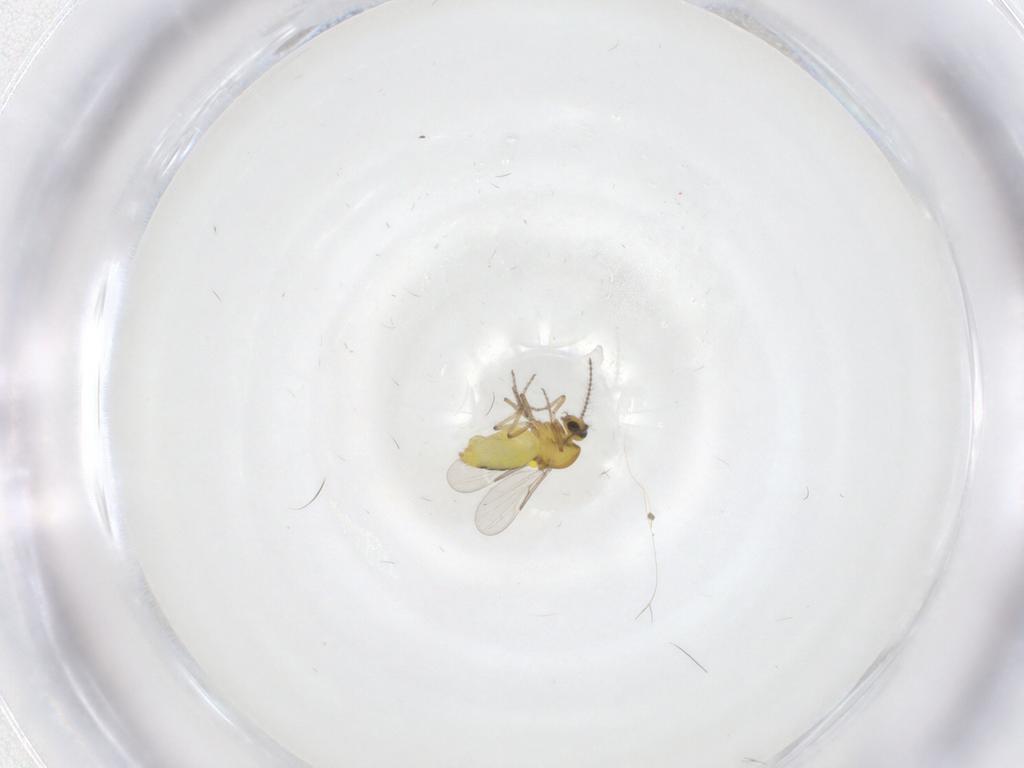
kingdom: Animalia
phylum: Arthropoda
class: Insecta
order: Diptera
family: Ceratopogonidae
